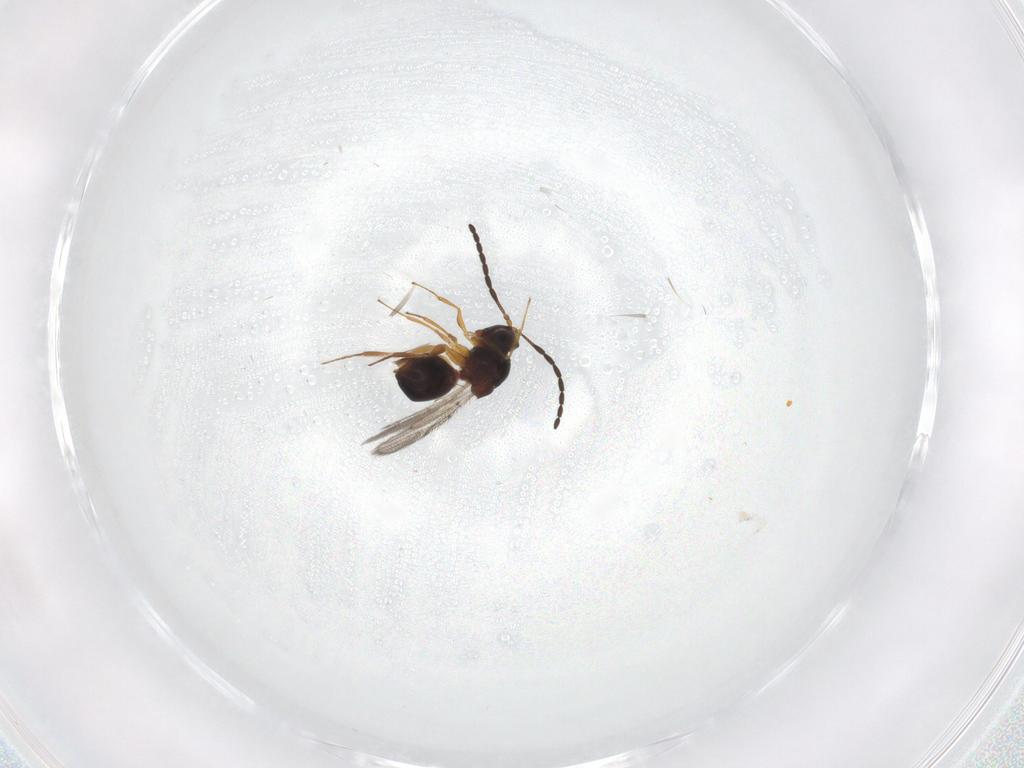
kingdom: Animalia
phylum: Arthropoda
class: Insecta
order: Hymenoptera
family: Figitidae
